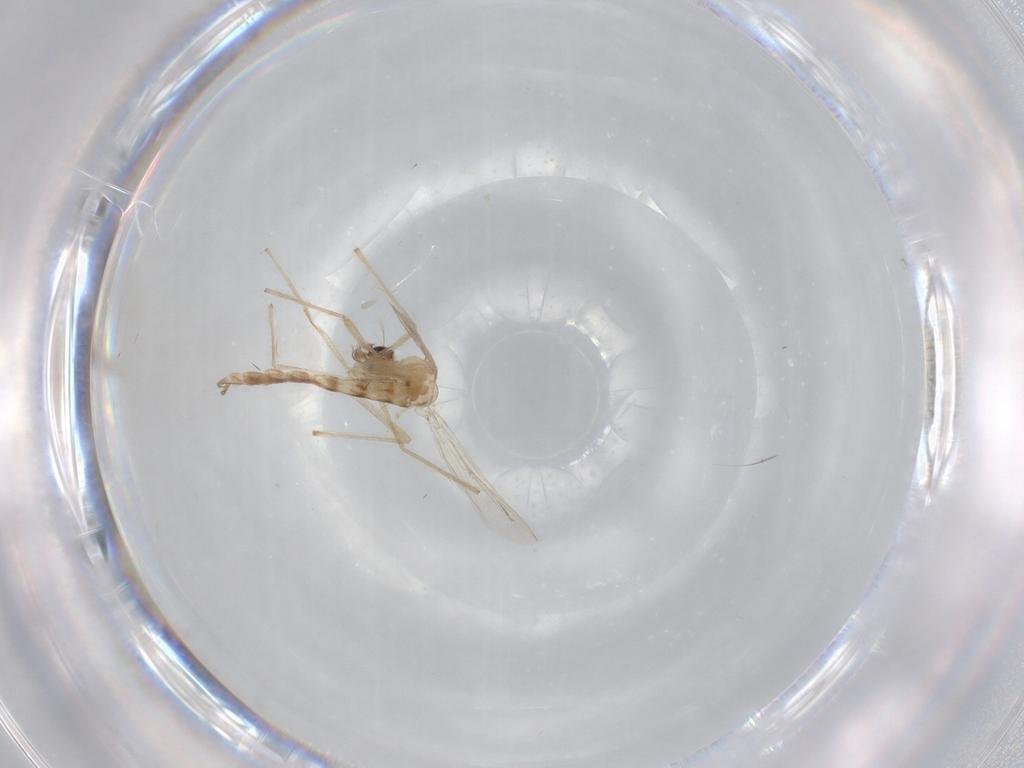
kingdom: Animalia
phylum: Arthropoda
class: Insecta
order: Diptera
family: Chironomidae
